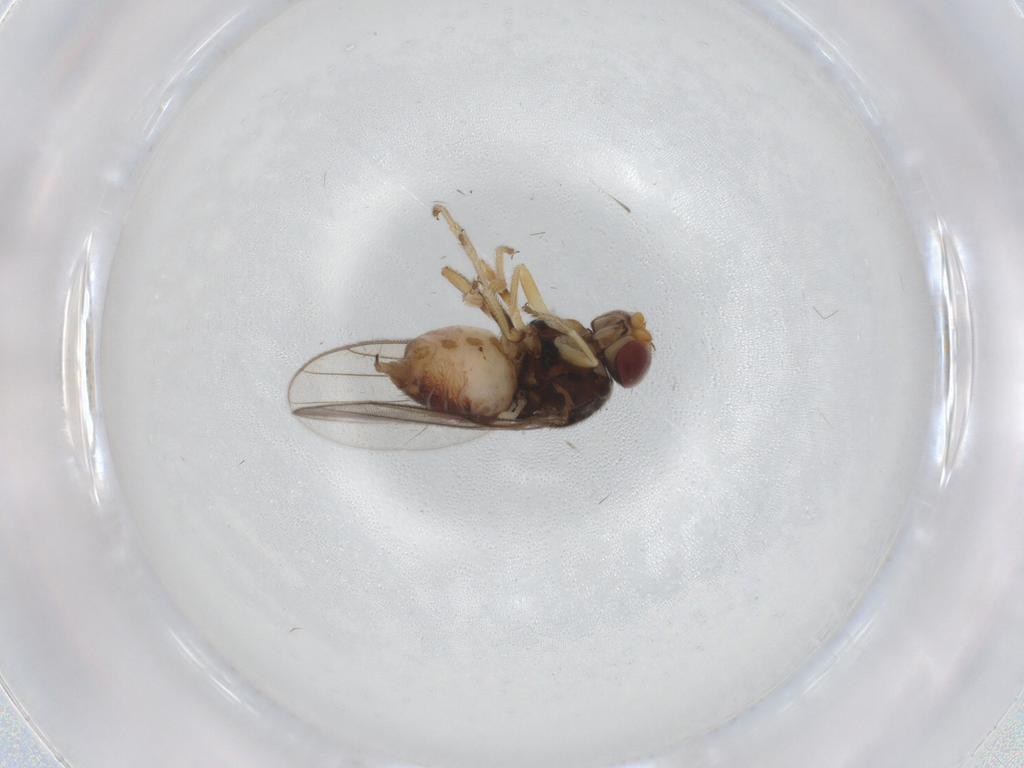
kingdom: Animalia
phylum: Arthropoda
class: Insecta
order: Diptera
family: Chloropidae
